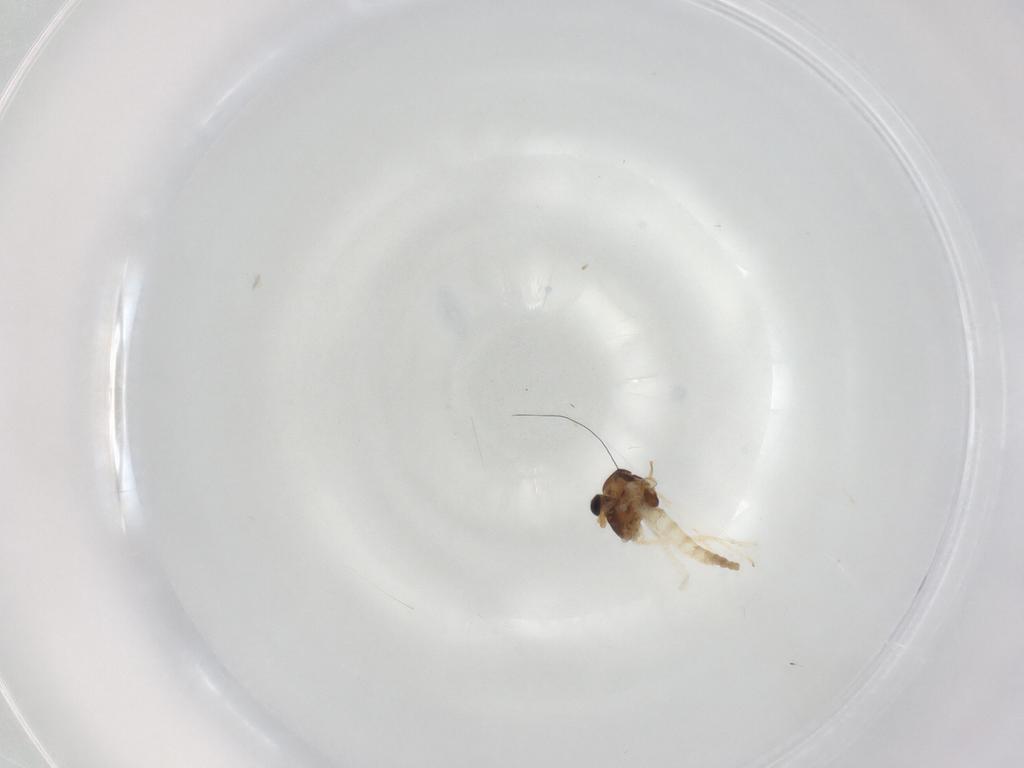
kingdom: Animalia
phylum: Arthropoda
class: Insecta
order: Diptera
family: Chironomidae
